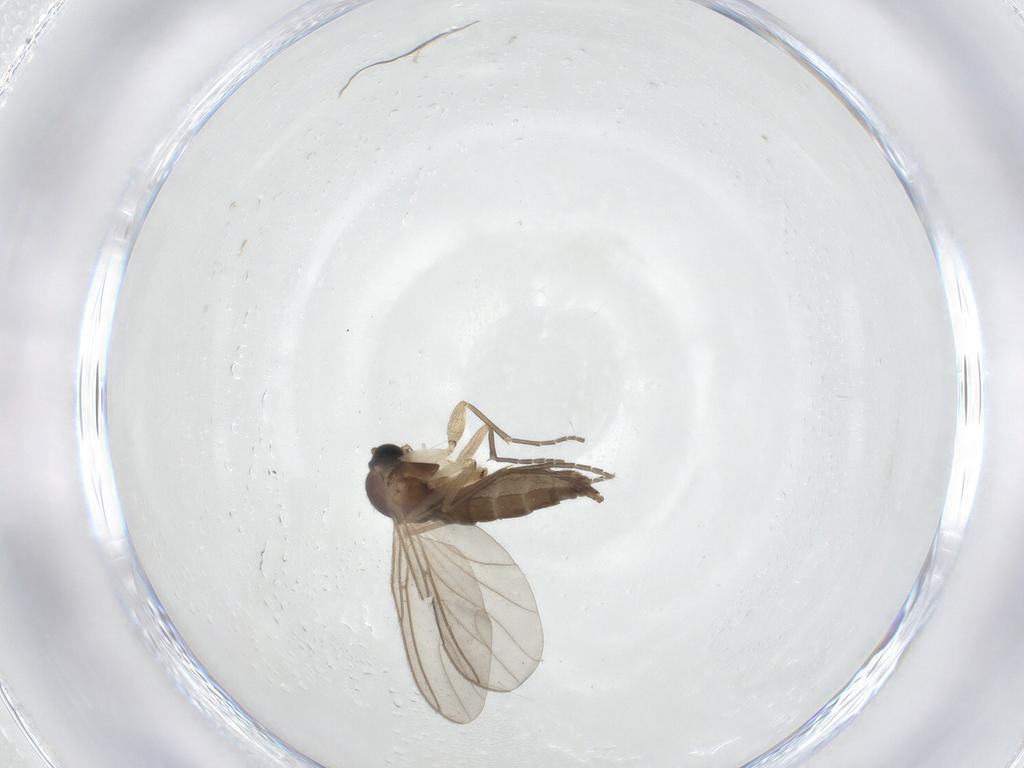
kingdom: Animalia
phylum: Arthropoda
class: Insecta
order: Diptera
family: Sciaridae
